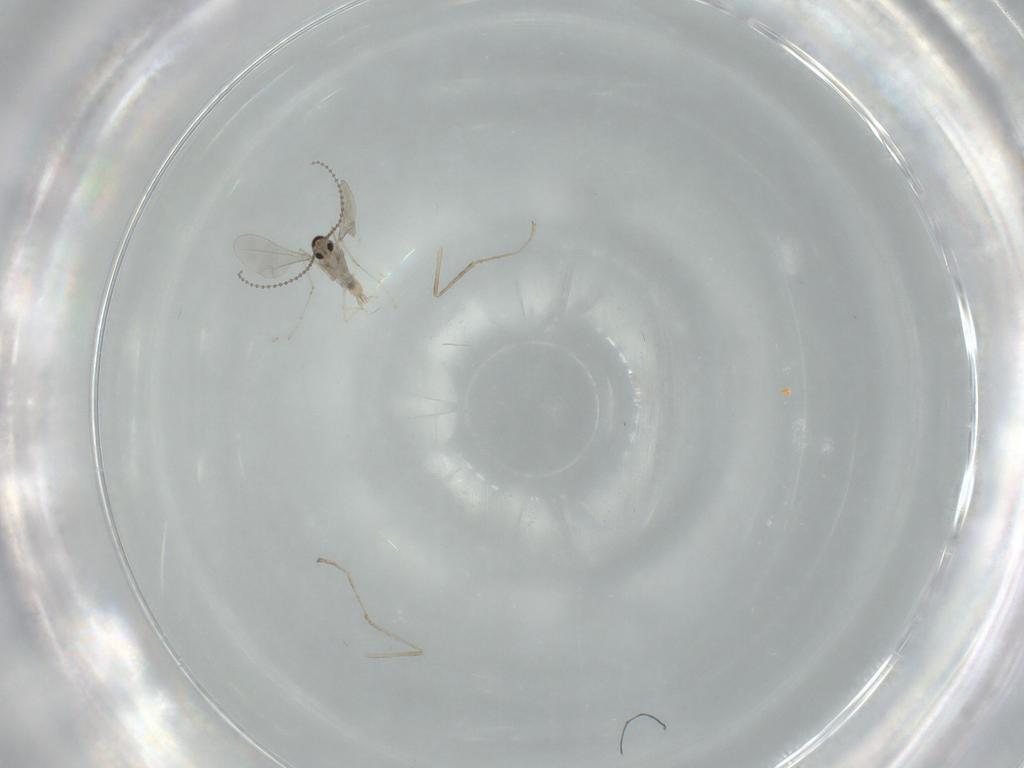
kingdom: Animalia
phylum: Arthropoda
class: Insecta
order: Diptera
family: Cecidomyiidae
